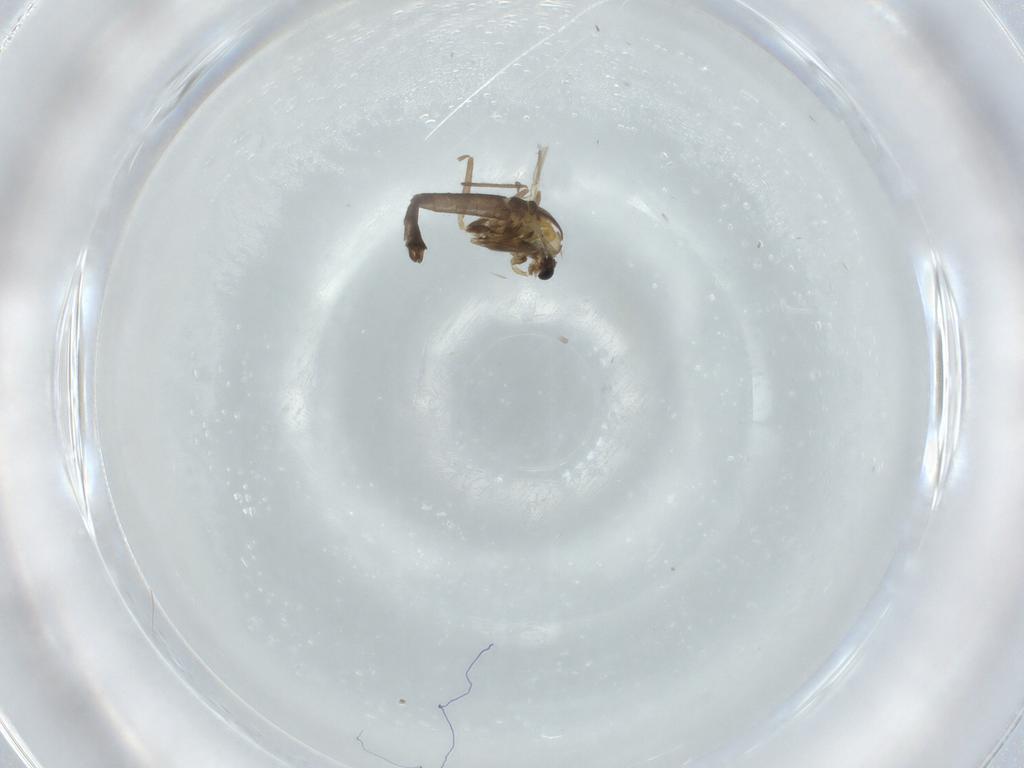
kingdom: Animalia
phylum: Arthropoda
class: Insecta
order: Diptera
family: Chironomidae
